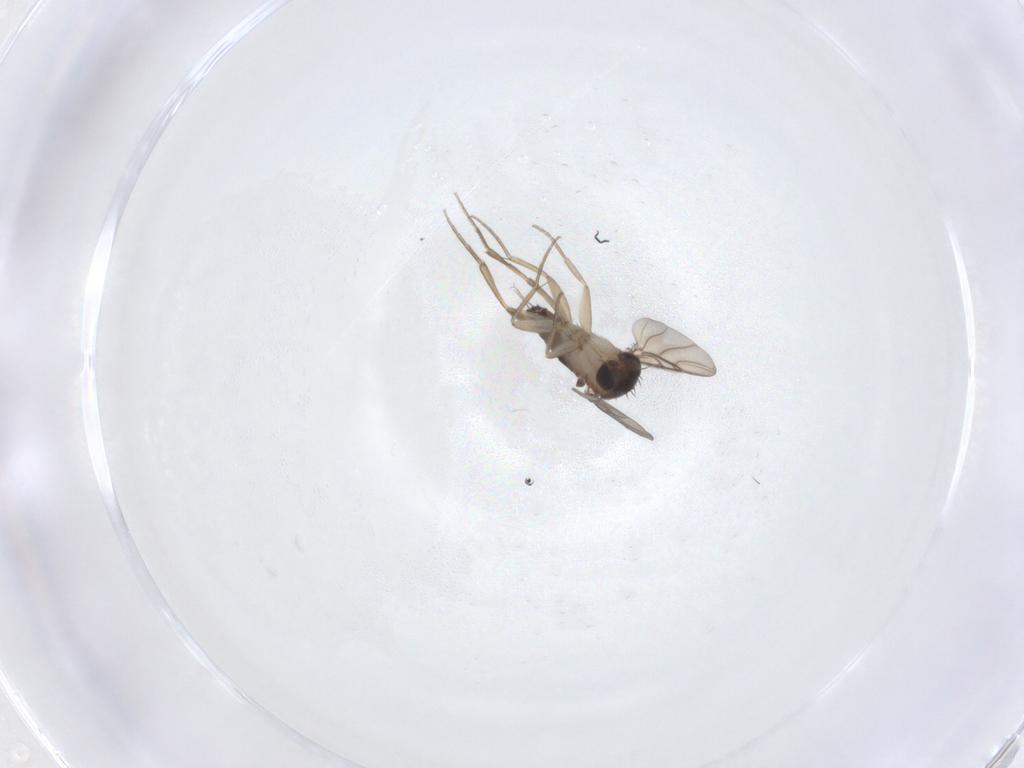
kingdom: Animalia
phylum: Arthropoda
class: Insecta
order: Diptera
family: Phoridae
